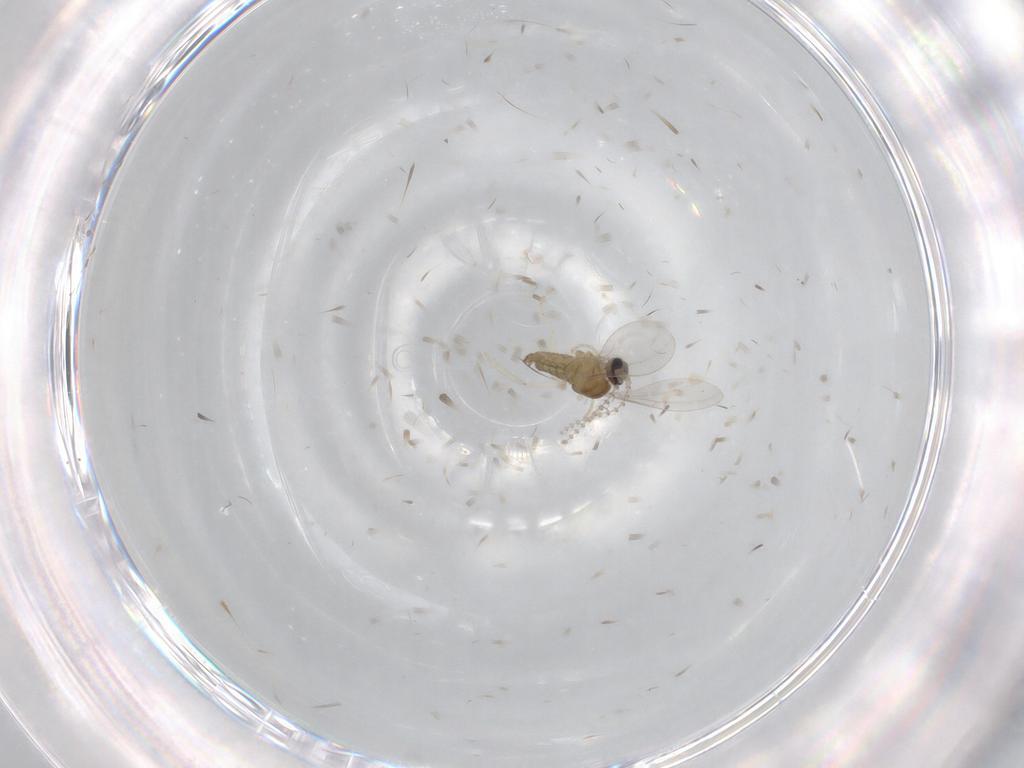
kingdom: Animalia
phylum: Arthropoda
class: Insecta
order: Diptera
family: Cecidomyiidae
